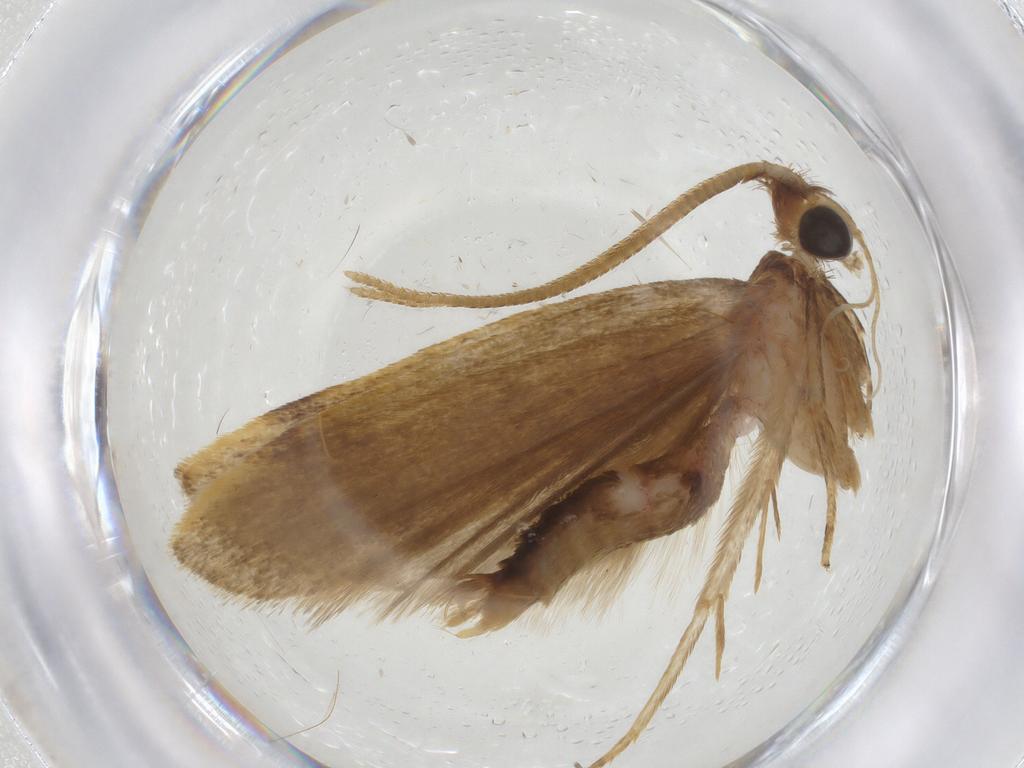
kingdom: Animalia
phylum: Arthropoda
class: Insecta
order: Lepidoptera
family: Autostichidae
